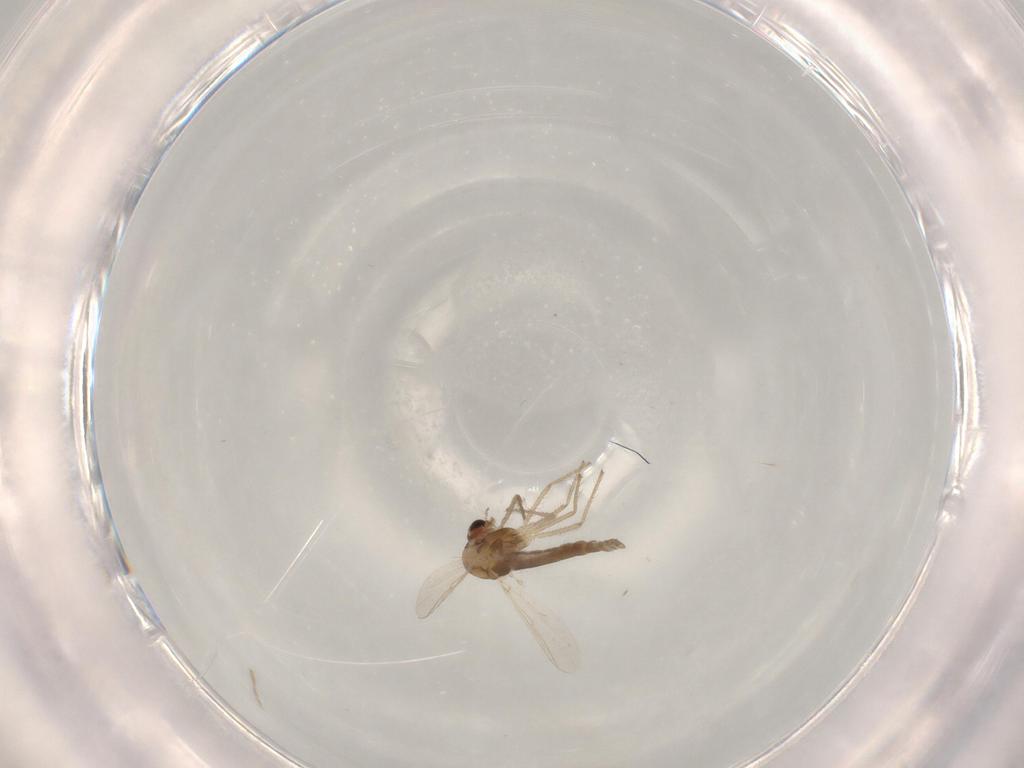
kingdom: Animalia
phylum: Arthropoda
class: Insecta
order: Diptera
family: Chironomidae
